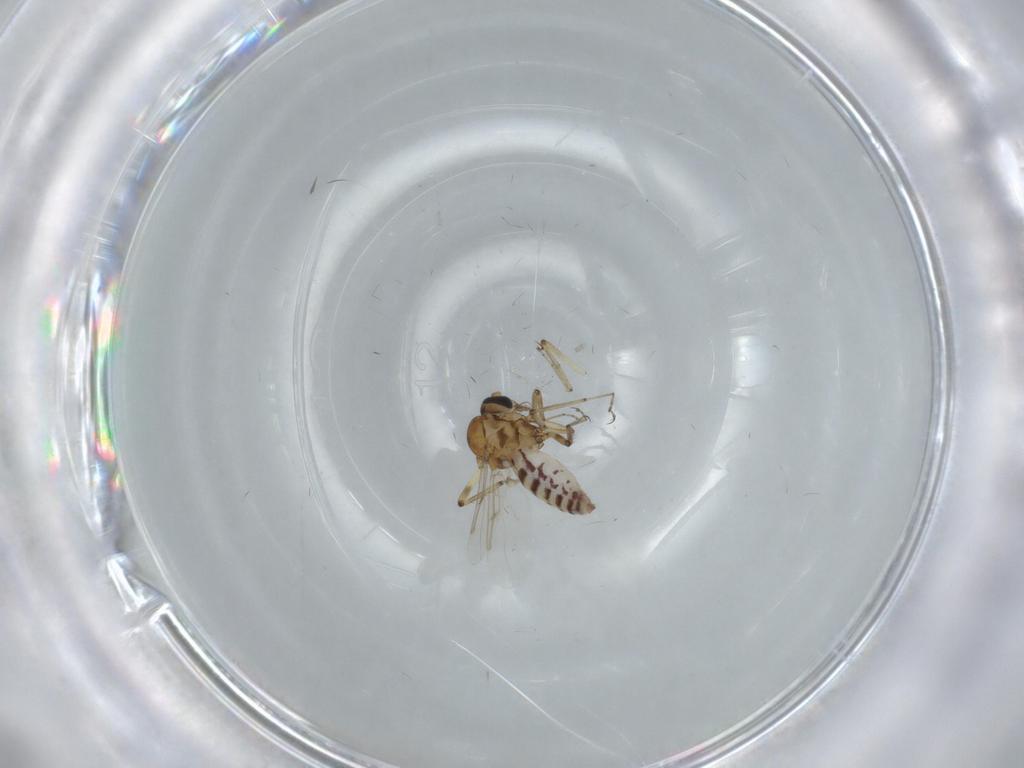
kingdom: Animalia
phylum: Arthropoda
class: Insecta
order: Diptera
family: Ceratopogonidae
